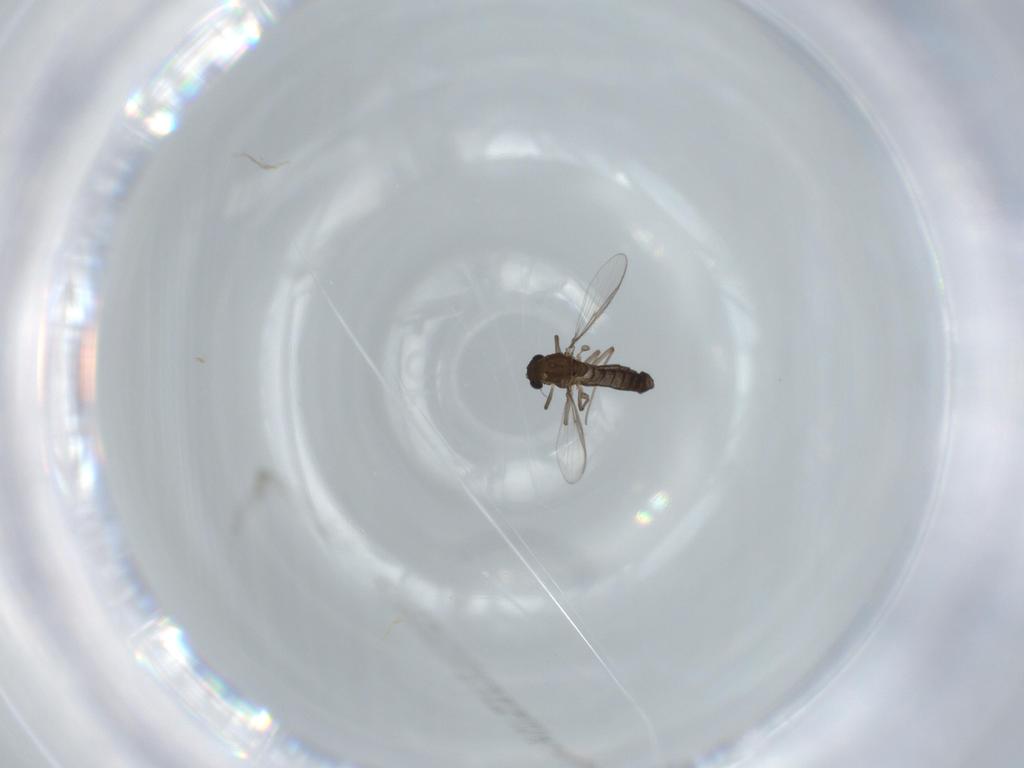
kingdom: Animalia
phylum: Arthropoda
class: Insecta
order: Diptera
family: Chironomidae
